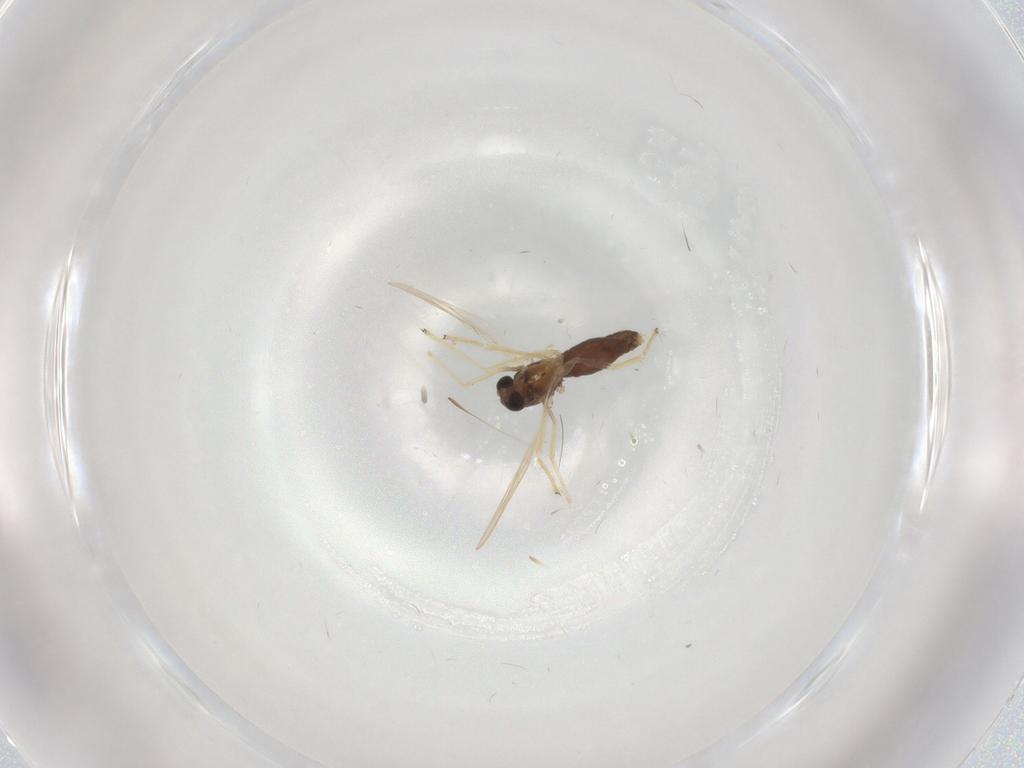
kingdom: Animalia
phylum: Arthropoda
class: Insecta
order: Diptera
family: Chironomidae
